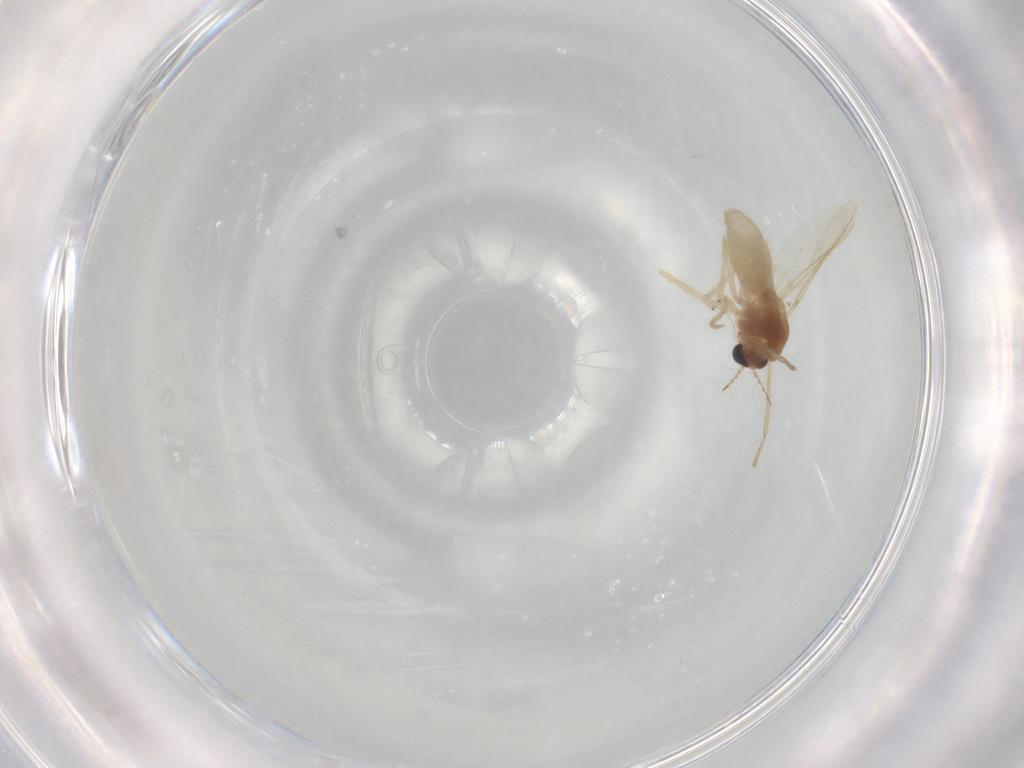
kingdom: Animalia
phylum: Arthropoda
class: Insecta
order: Diptera
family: Chironomidae
